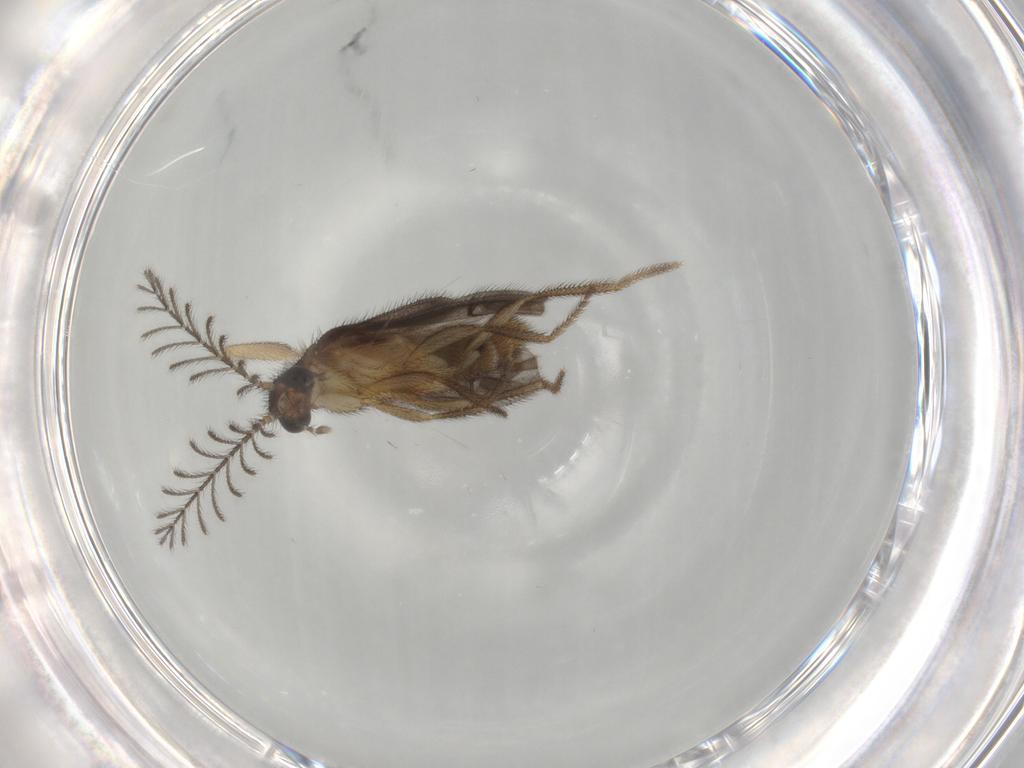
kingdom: Animalia
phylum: Arthropoda
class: Insecta
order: Coleoptera
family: Phengodidae
